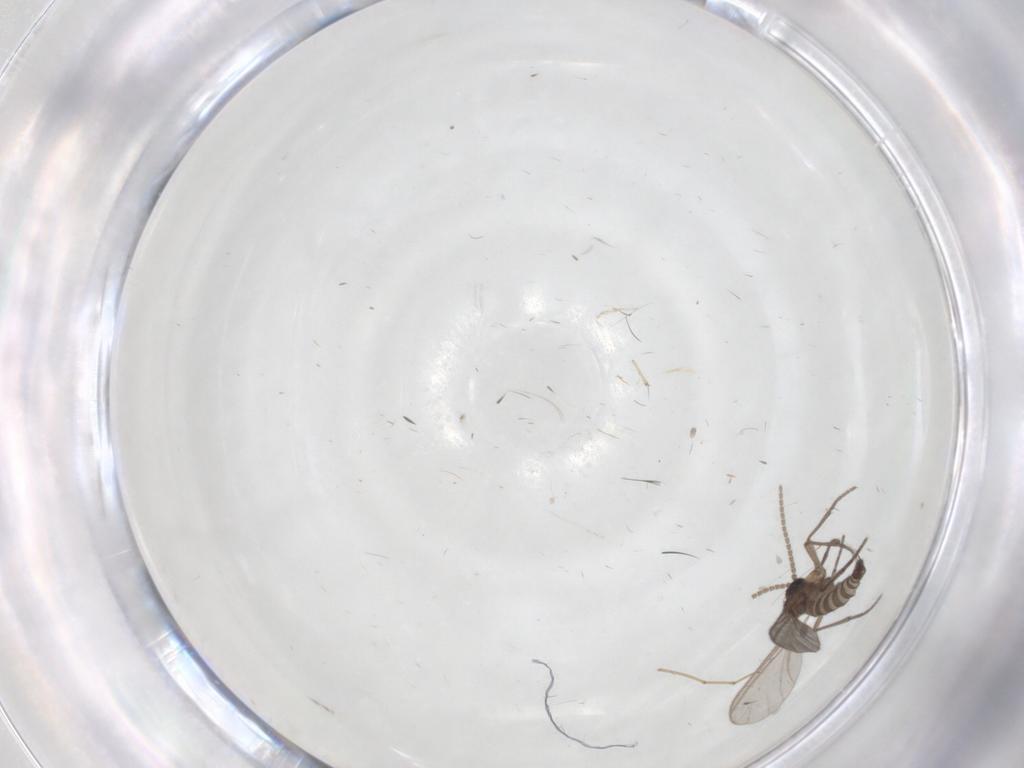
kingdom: Animalia
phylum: Arthropoda
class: Insecta
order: Diptera
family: Sciaridae
